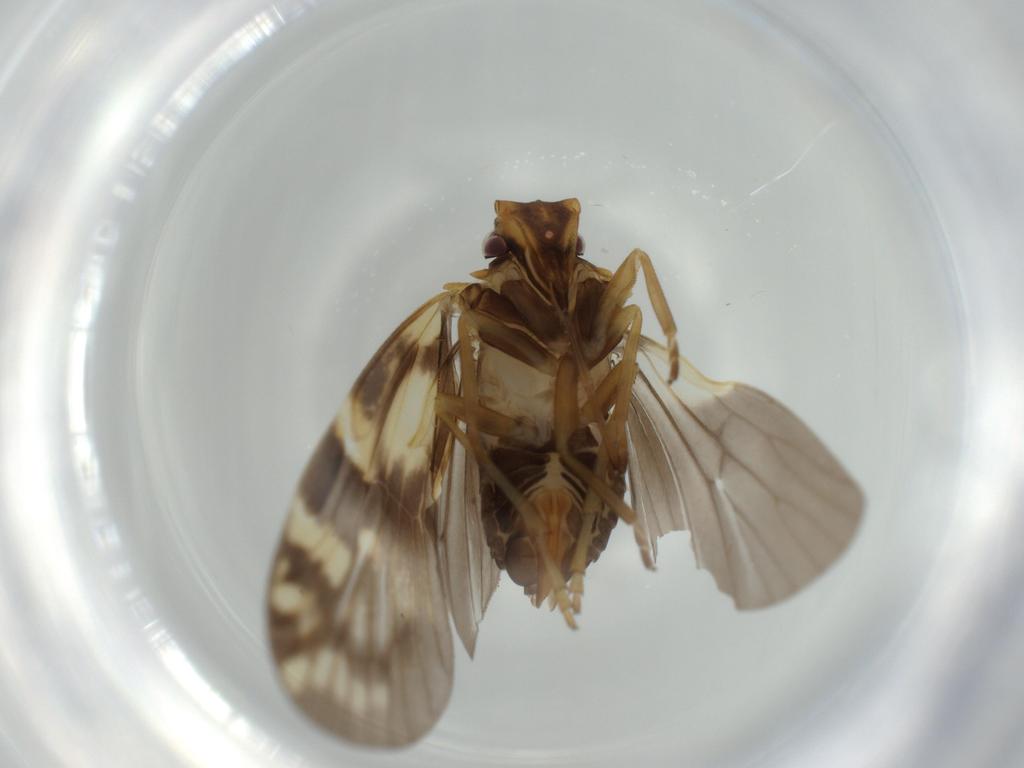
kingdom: Animalia
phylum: Arthropoda
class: Insecta
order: Hemiptera
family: Cixiidae
